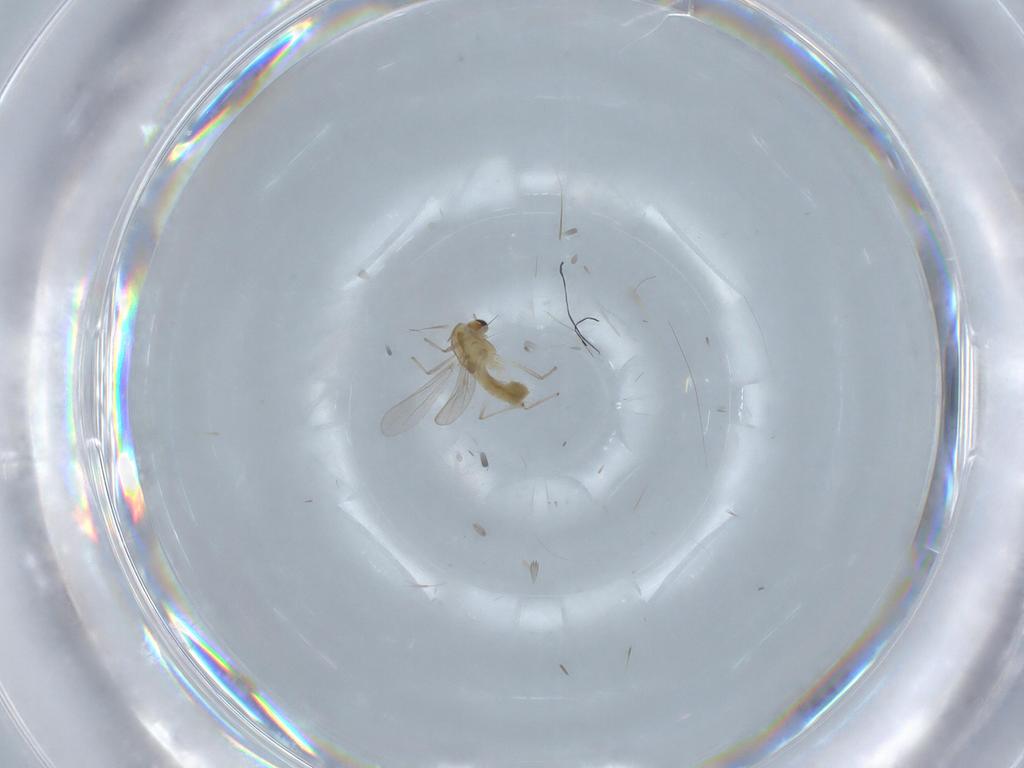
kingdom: Animalia
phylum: Arthropoda
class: Insecta
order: Diptera
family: Chironomidae
